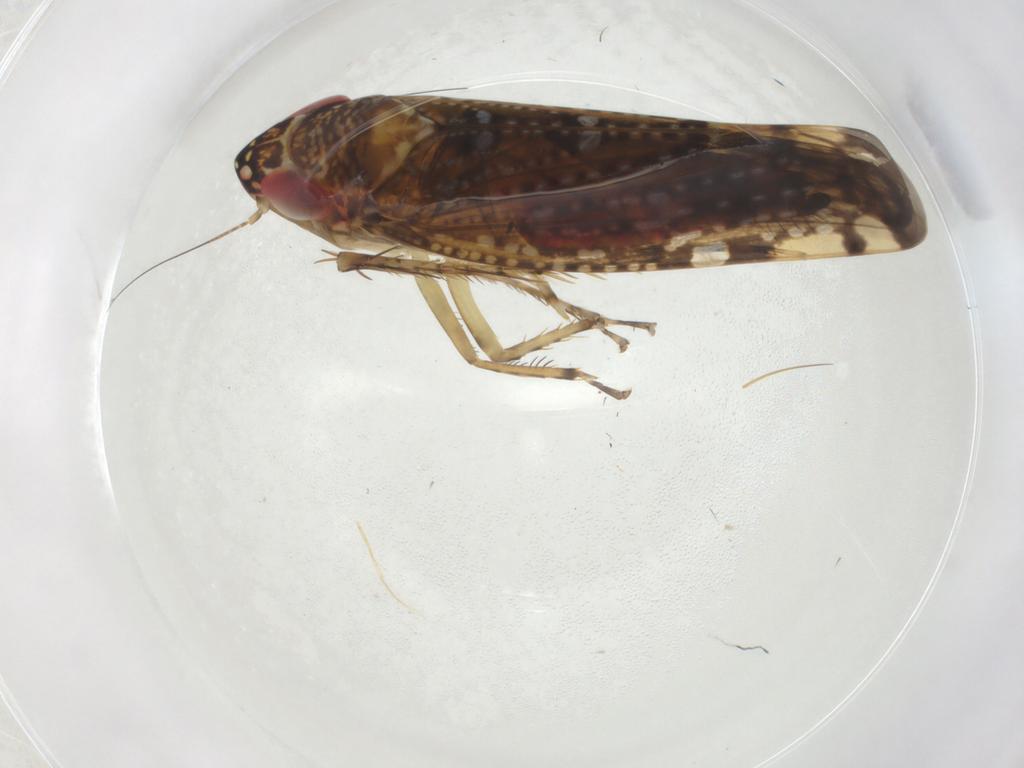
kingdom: Animalia
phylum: Arthropoda
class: Insecta
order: Hemiptera
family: Cicadellidae
